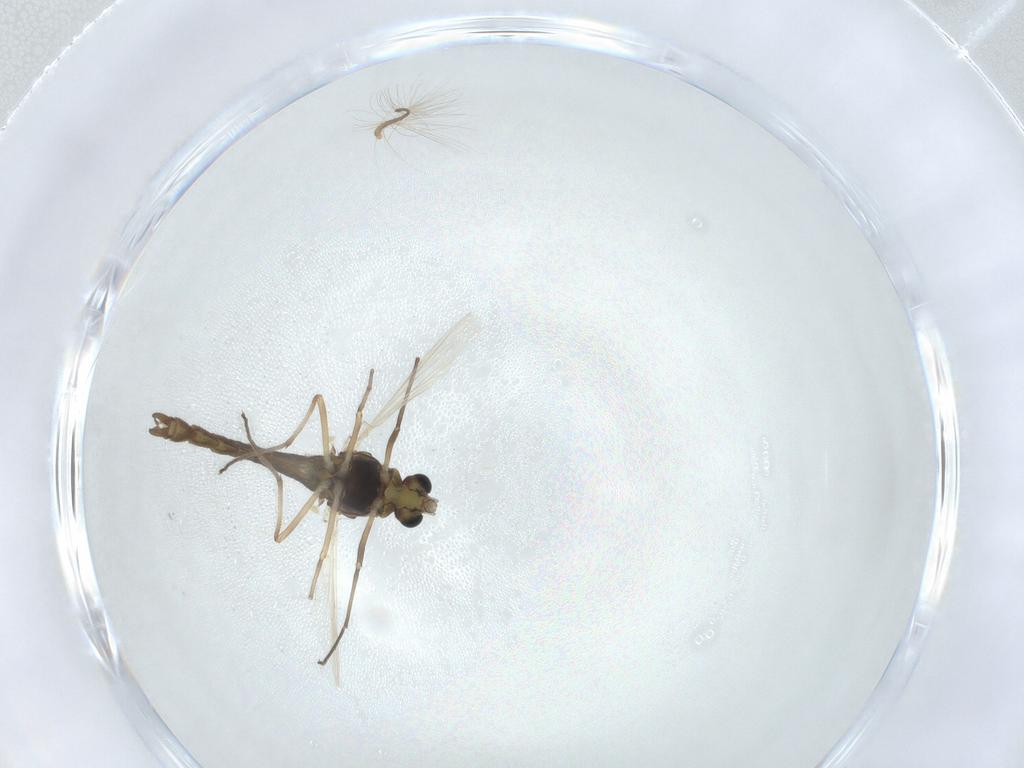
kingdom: Animalia
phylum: Arthropoda
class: Insecta
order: Diptera
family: Chironomidae
